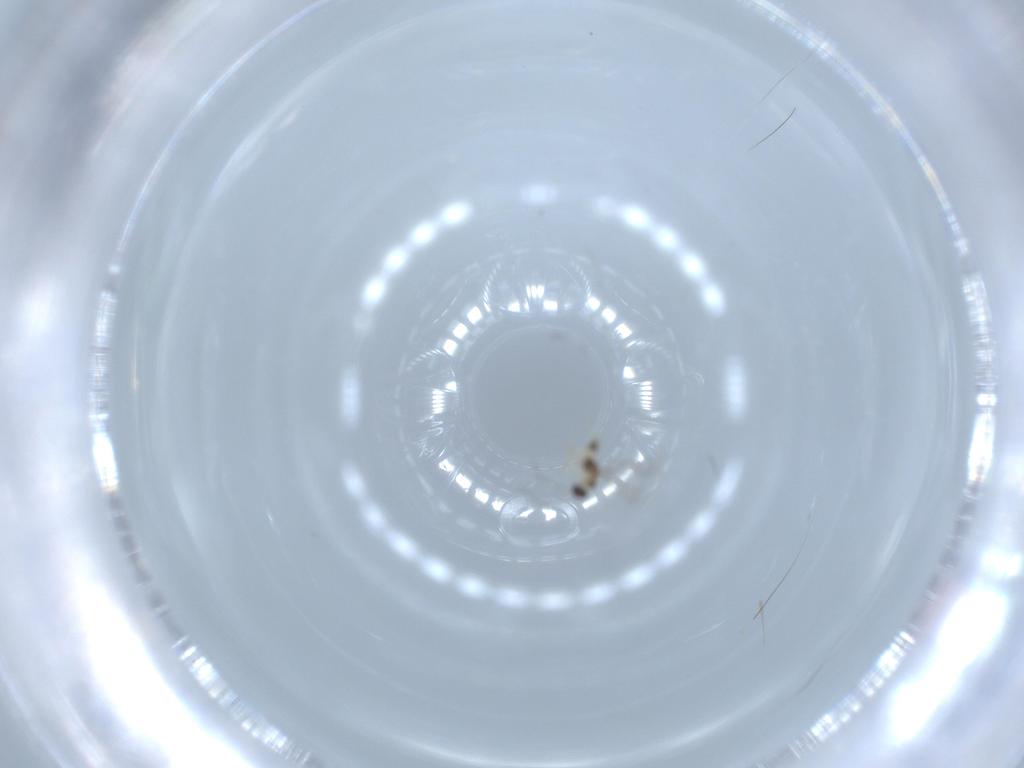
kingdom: Animalia
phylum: Arthropoda
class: Insecta
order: Hymenoptera
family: Mymaridae
